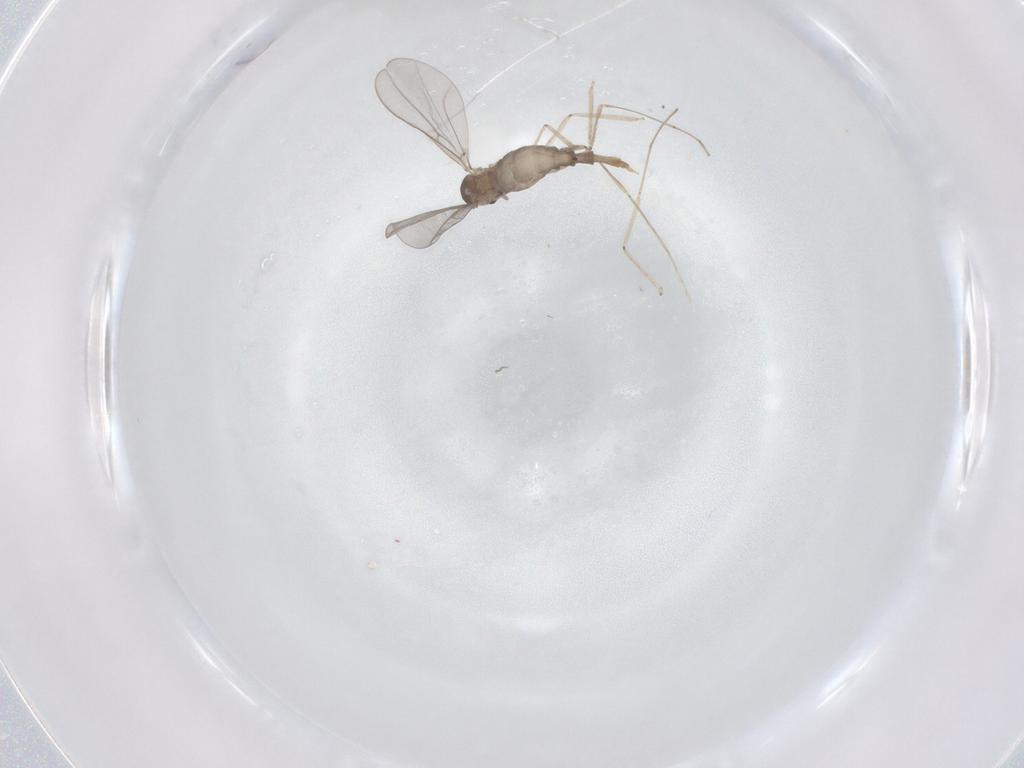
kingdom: Animalia
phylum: Arthropoda
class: Insecta
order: Diptera
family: Cecidomyiidae
